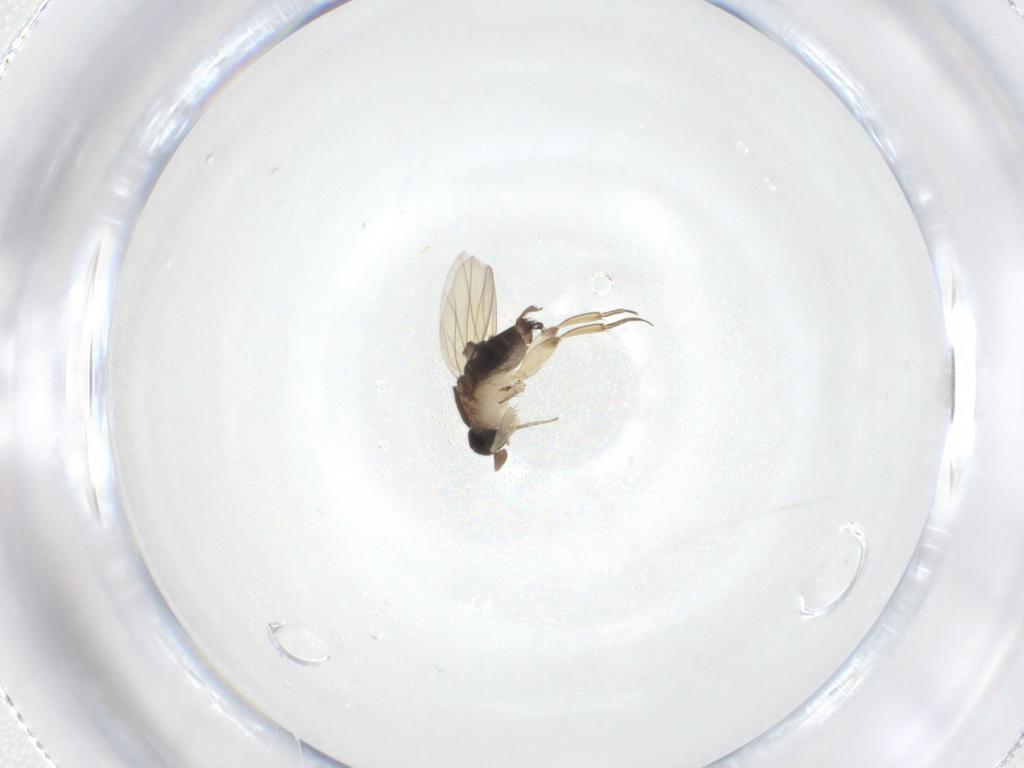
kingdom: Animalia
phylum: Arthropoda
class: Insecta
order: Diptera
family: Phoridae
